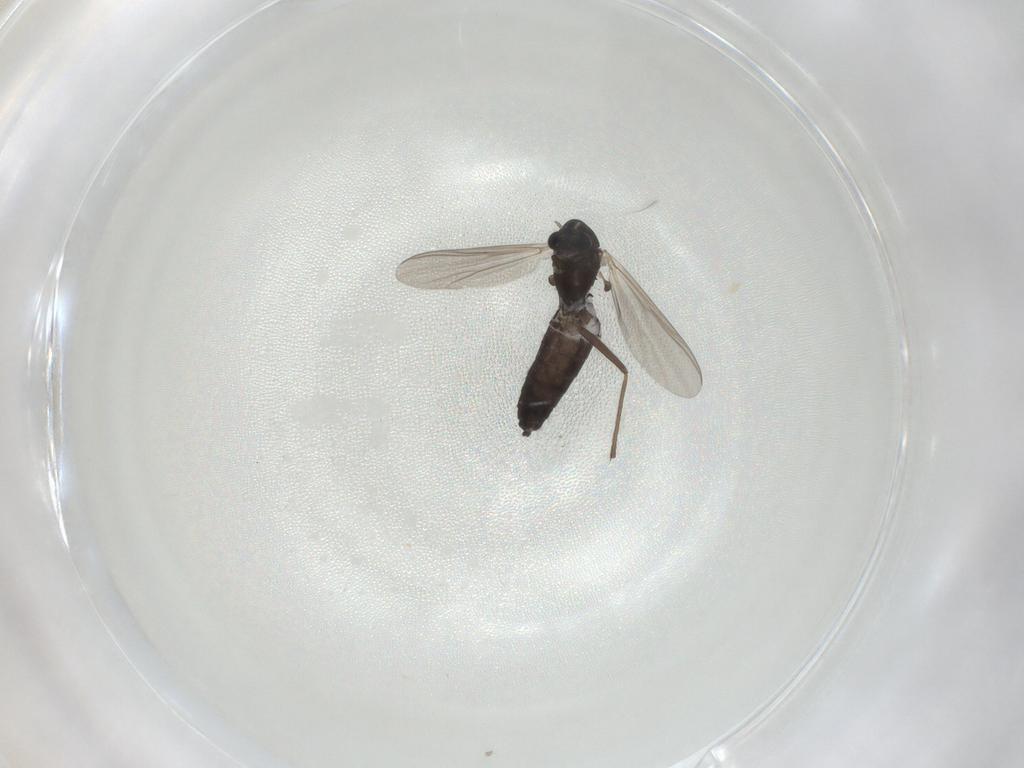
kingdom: Animalia
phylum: Arthropoda
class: Insecta
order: Diptera
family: Chironomidae
